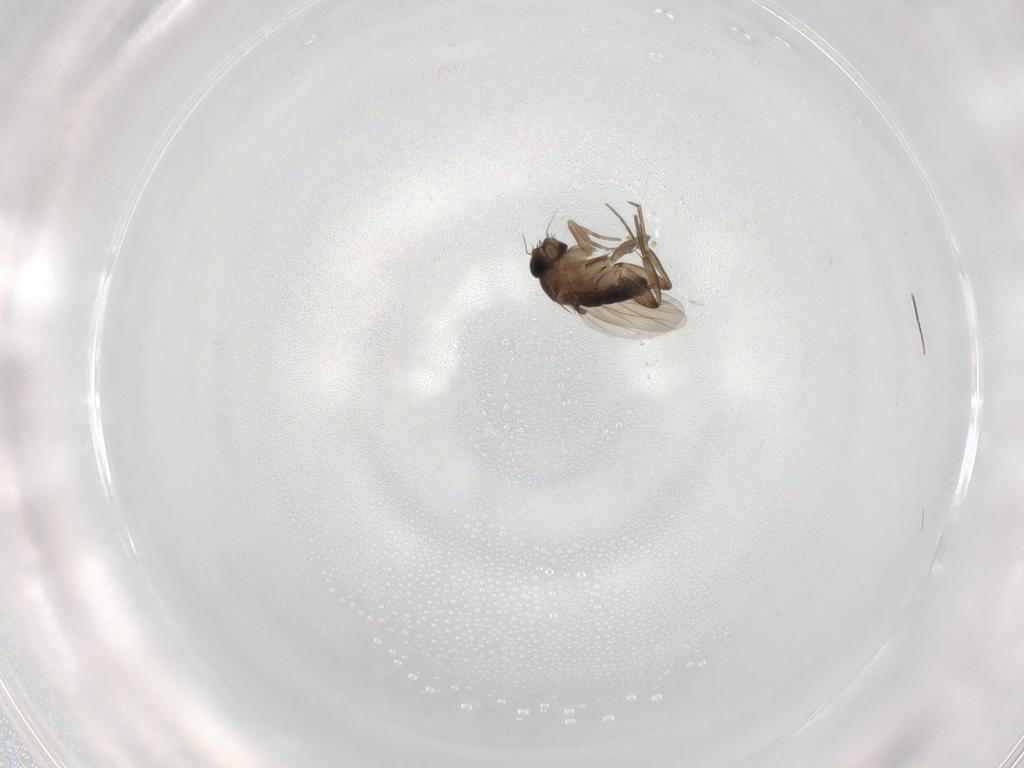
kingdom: Animalia
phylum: Arthropoda
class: Insecta
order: Diptera
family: Phoridae
